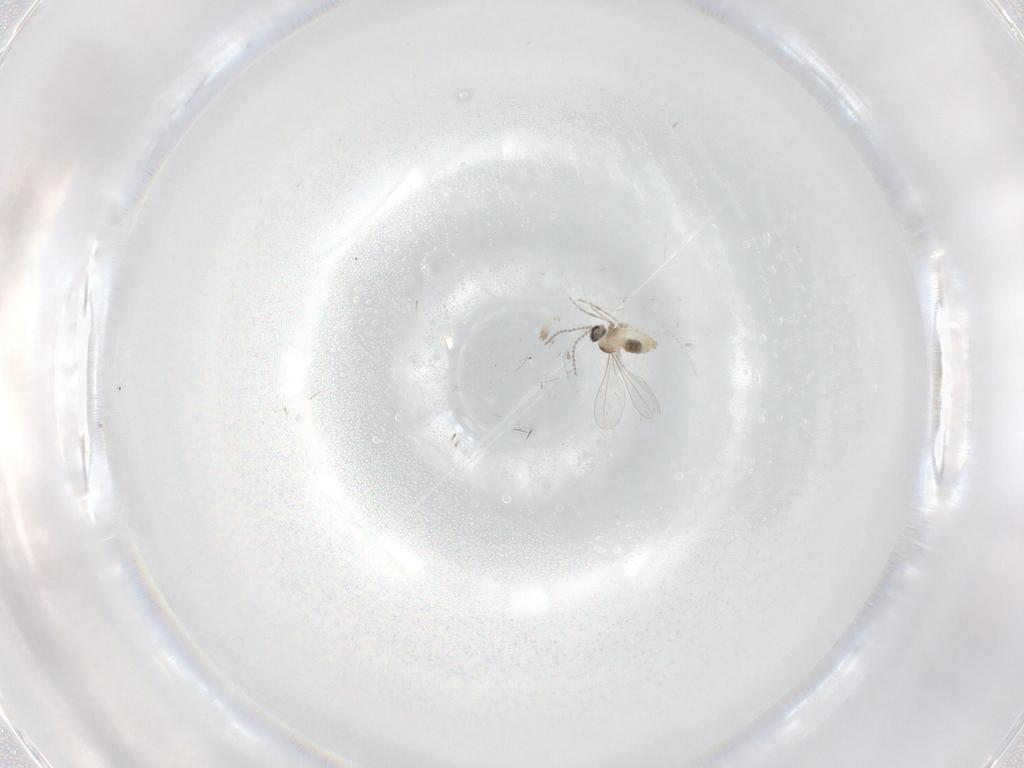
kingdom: Animalia
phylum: Arthropoda
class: Insecta
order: Diptera
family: Cecidomyiidae
